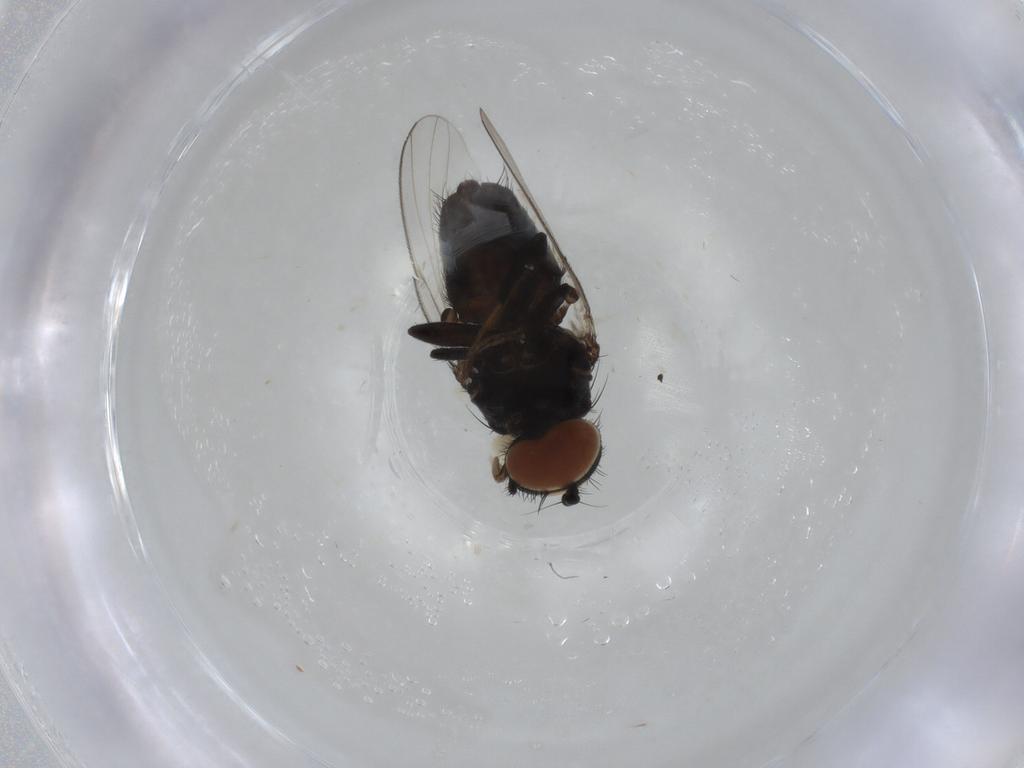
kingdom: Animalia
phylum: Arthropoda
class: Insecta
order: Diptera
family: Milichiidae
